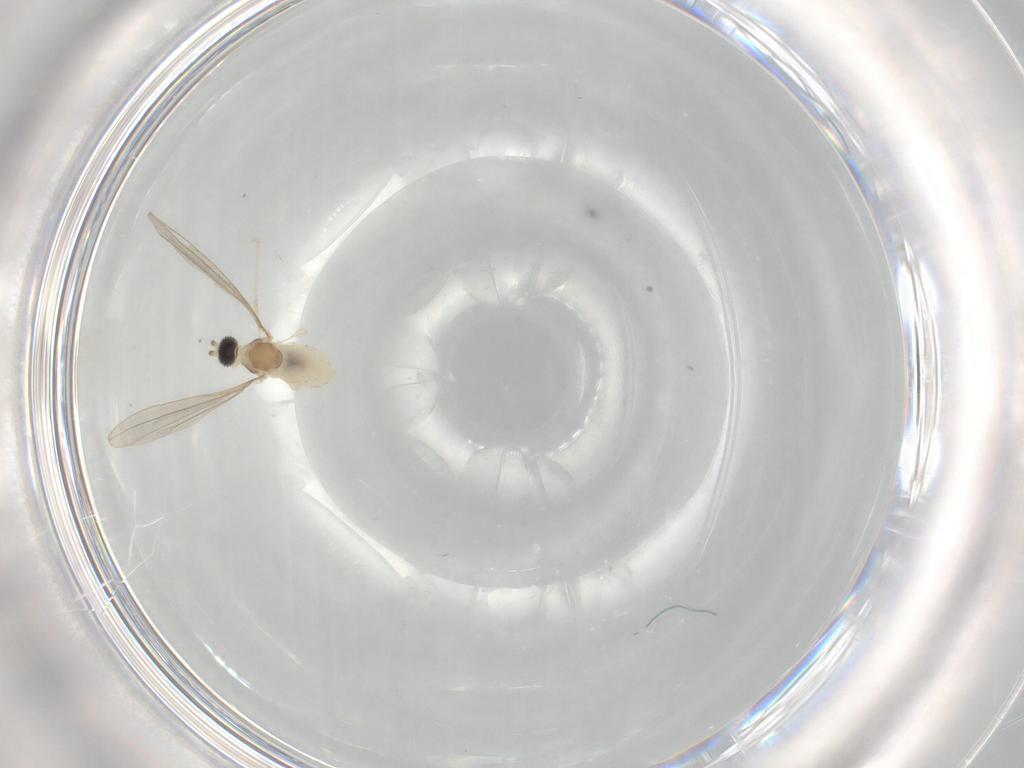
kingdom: Animalia
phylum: Arthropoda
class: Insecta
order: Diptera
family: Cecidomyiidae
